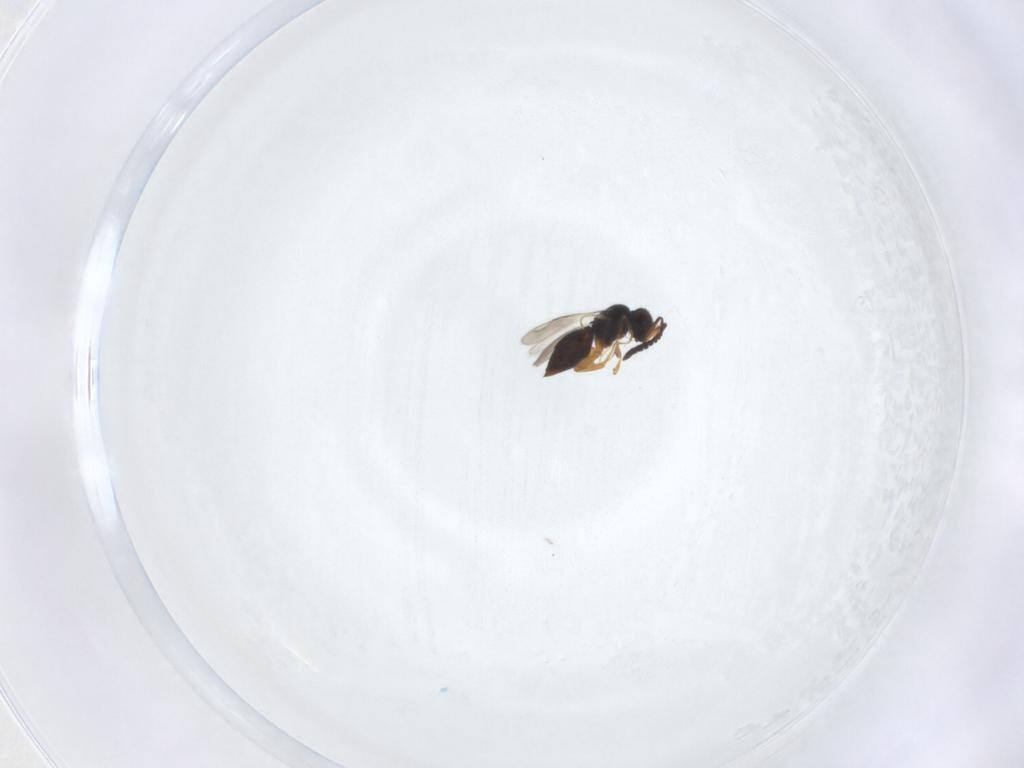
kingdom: Animalia
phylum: Arthropoda
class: Insecta
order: Hymenoptera
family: Ceraphronidae
